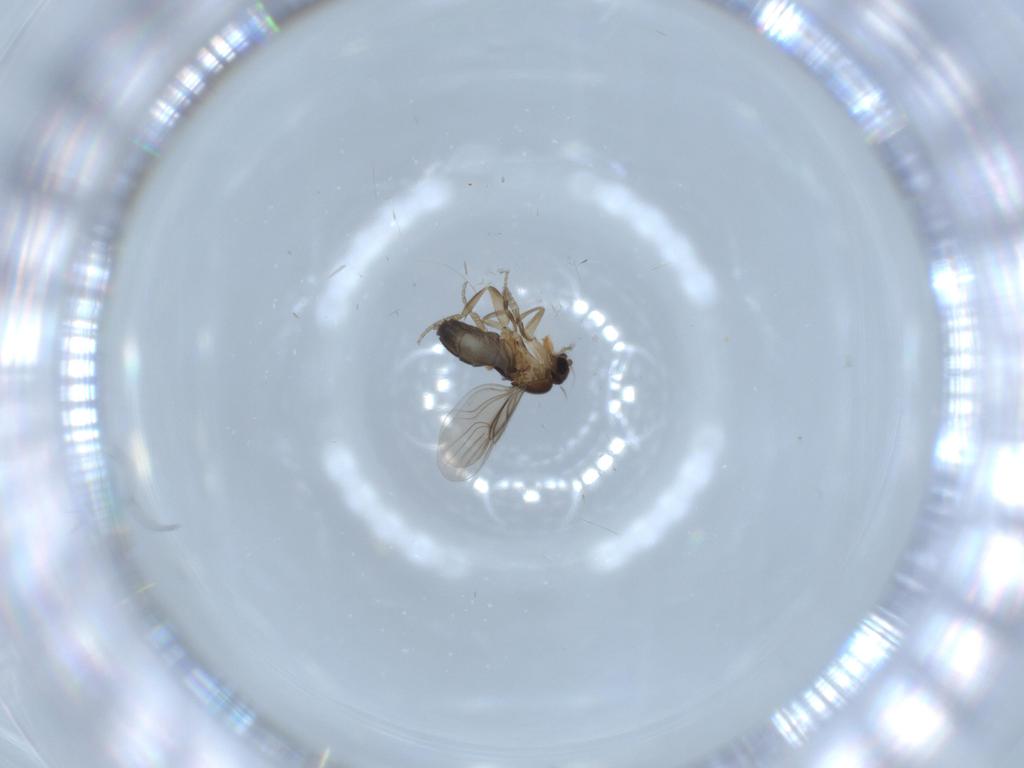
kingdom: Animalia
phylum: Arthropoda
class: Insecta
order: Diptera
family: Phoridae
